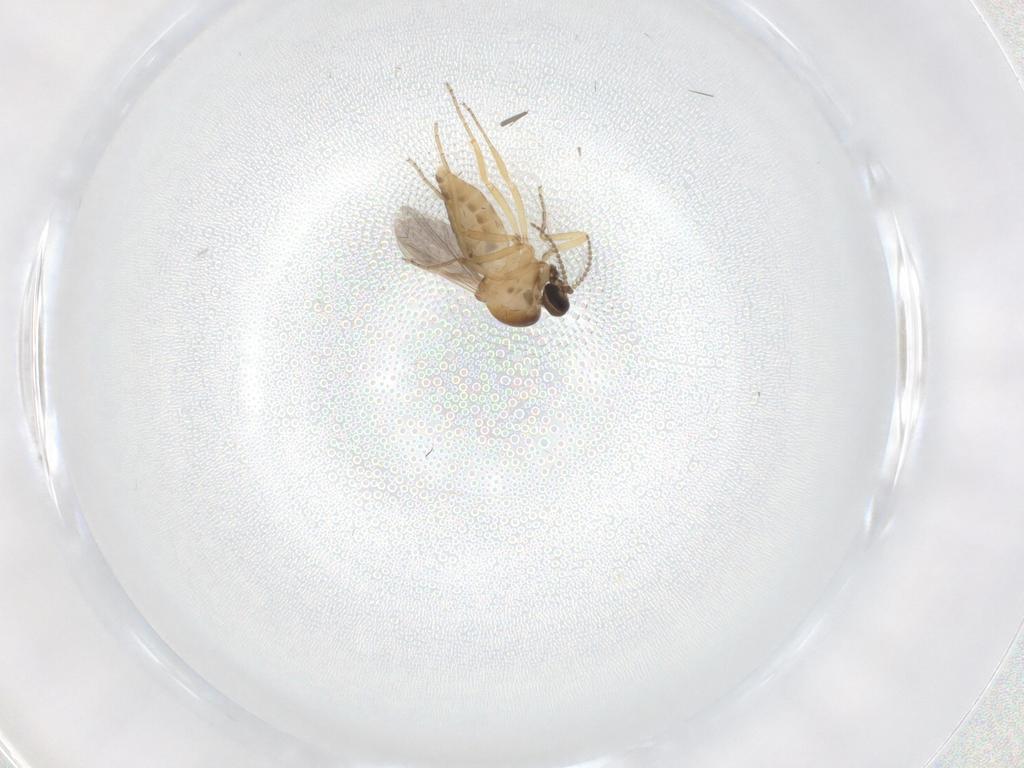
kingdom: Animalia
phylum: Arthropoda
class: Insecta
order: Diptera
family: Ceratopogonidae
